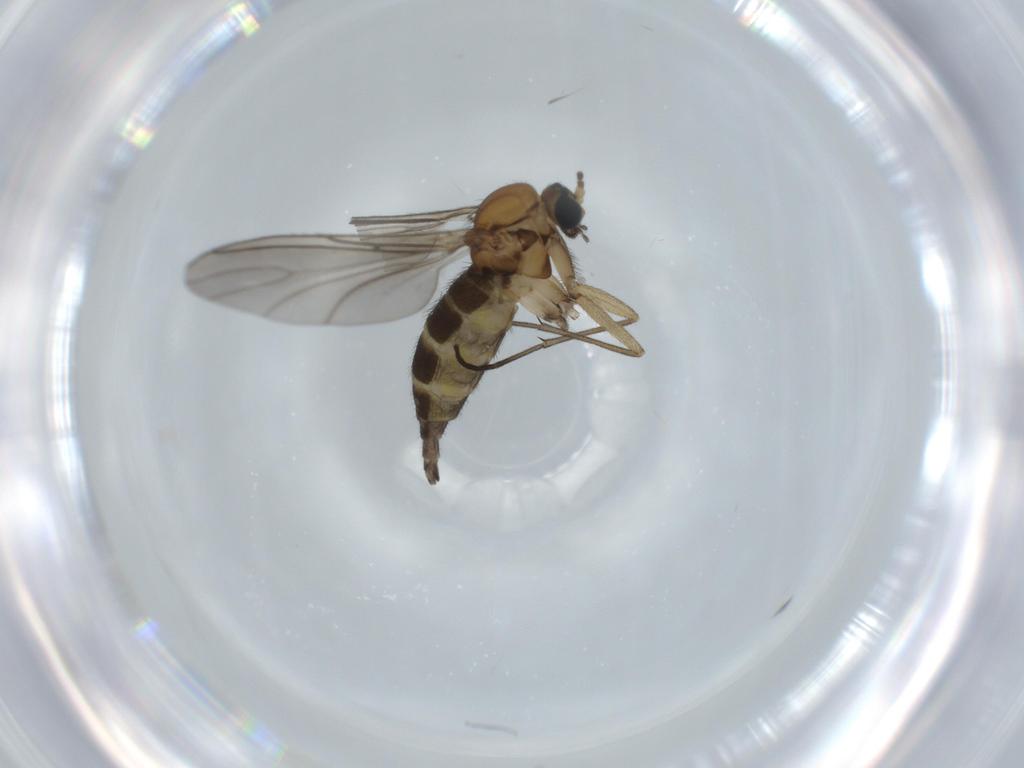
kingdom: Animalia
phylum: Arthropoda
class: Insecta
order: Diptera
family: Sciaridae
